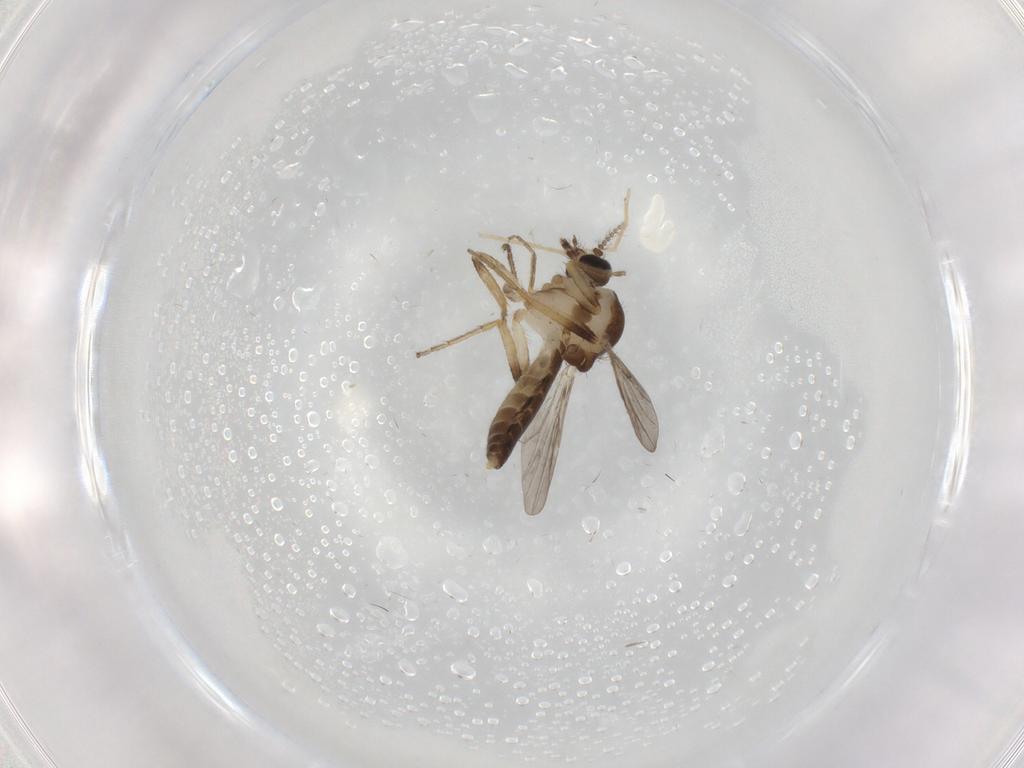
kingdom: Animalia
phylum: Arthropoda
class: Insecta
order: Diptera
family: Ceratopogonidae
